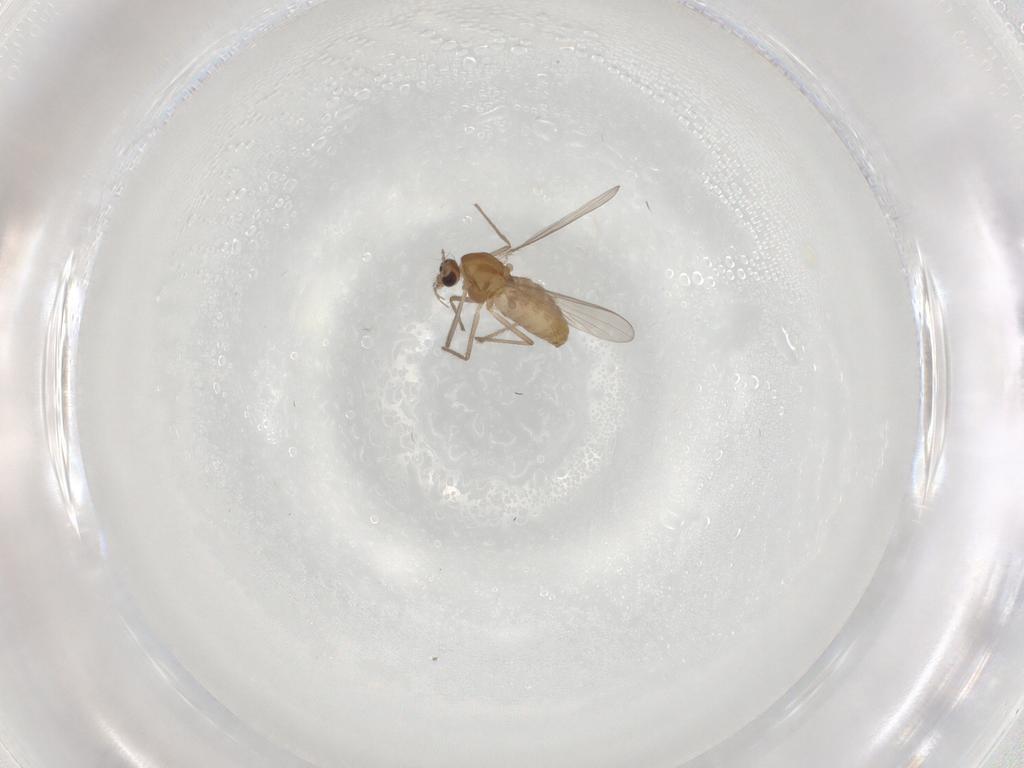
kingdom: Animalia
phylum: Arthropoda
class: Insecta
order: Diptera
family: Chironomidae
